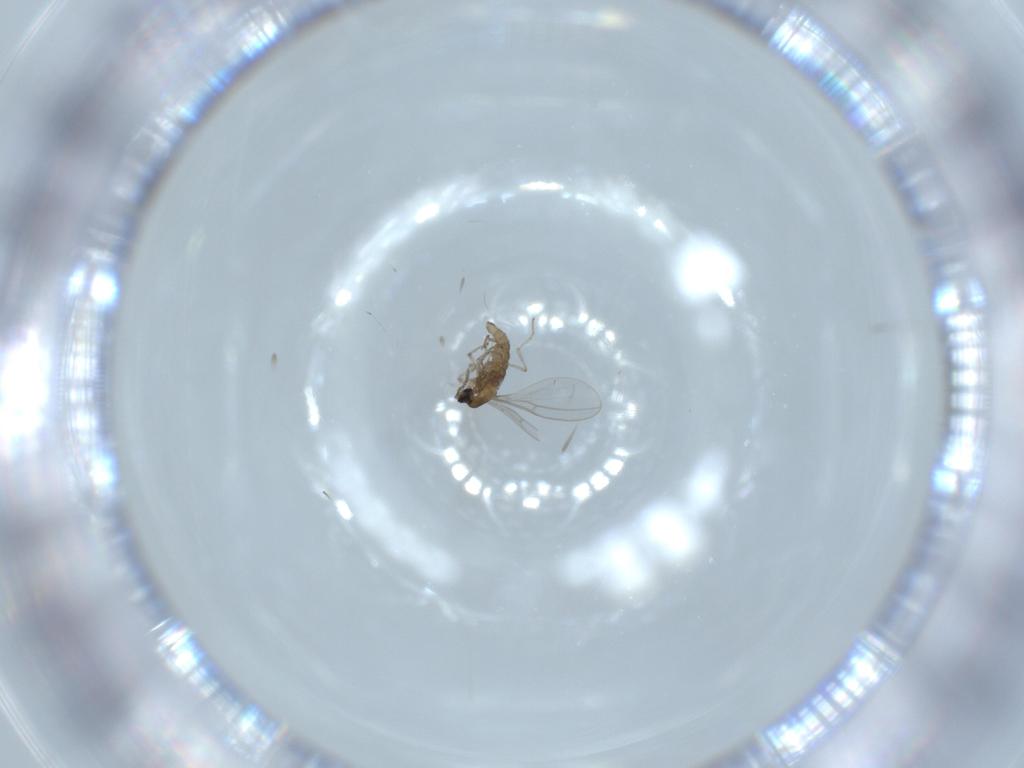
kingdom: Animalia
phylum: Arthropoda
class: Insecta
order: Diptera
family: Cecidomyiidae
